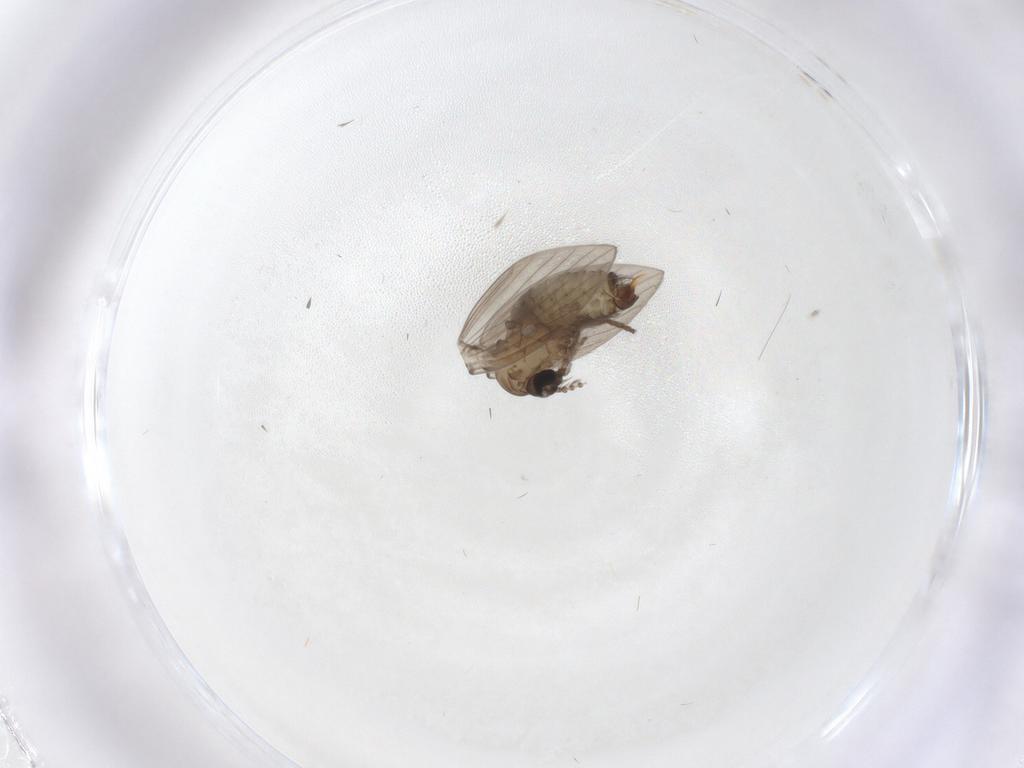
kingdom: Animalia
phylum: Arthropoda
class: Insecta
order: Diptera
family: Psychodidae
